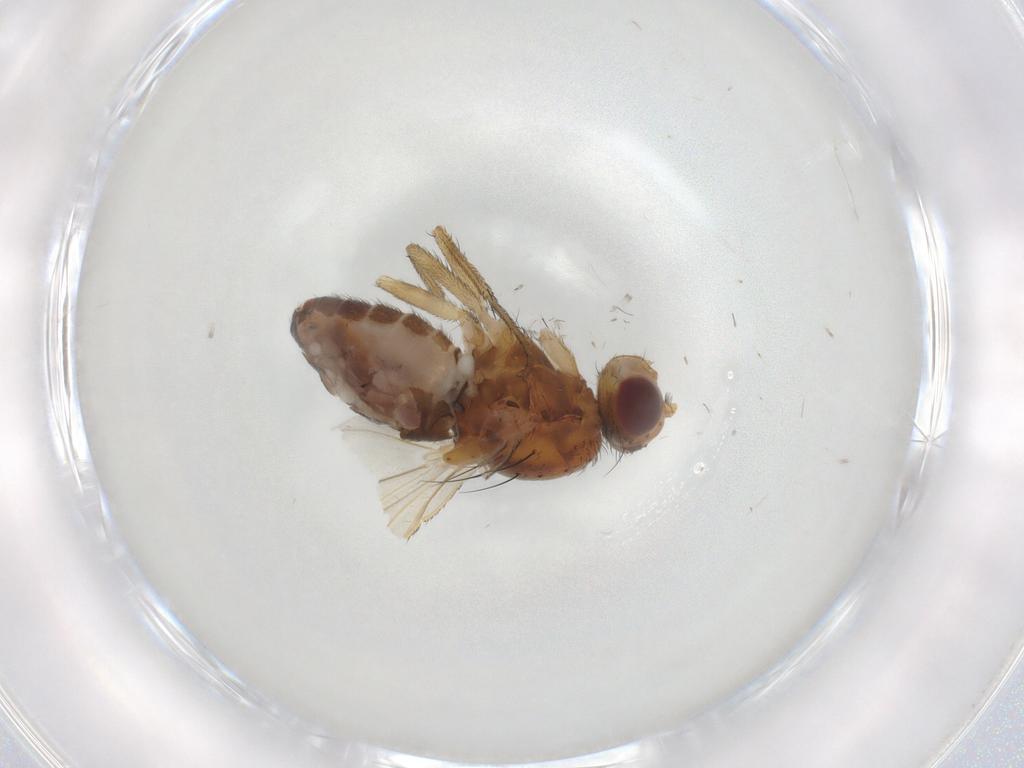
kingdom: Animalia
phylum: Arthropoda
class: Insecta
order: Diptera
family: Heleomyzidae
